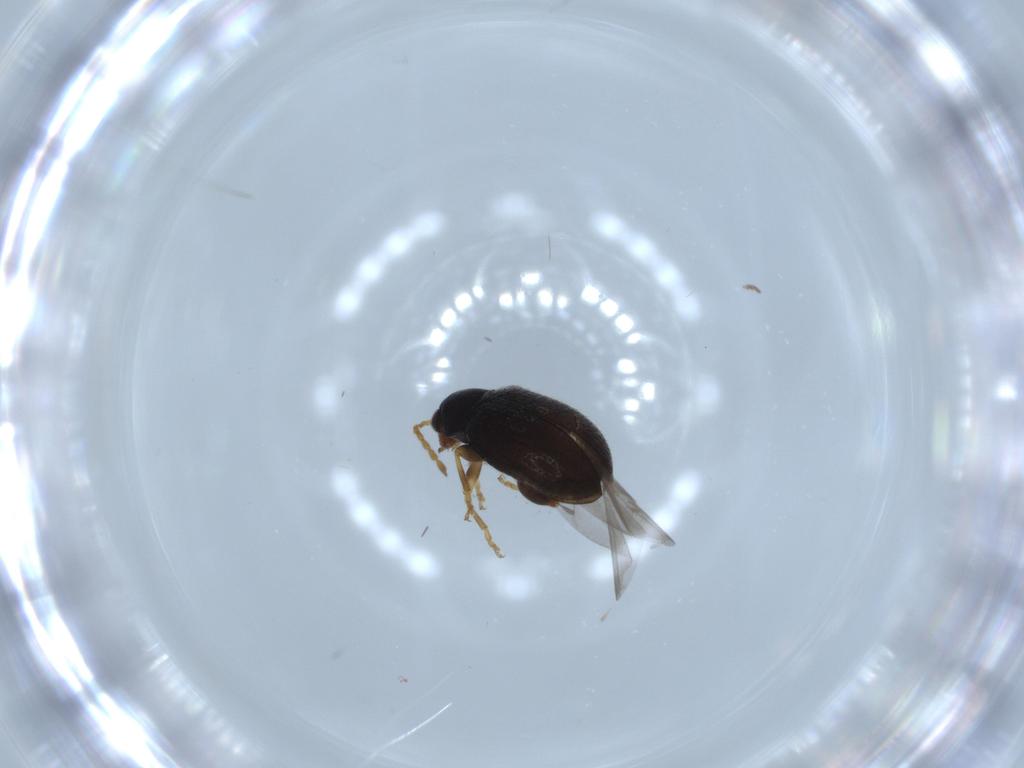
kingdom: Animalia
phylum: Arthropoda
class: Insecta
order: Coleoptera
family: Chrysomelidae
